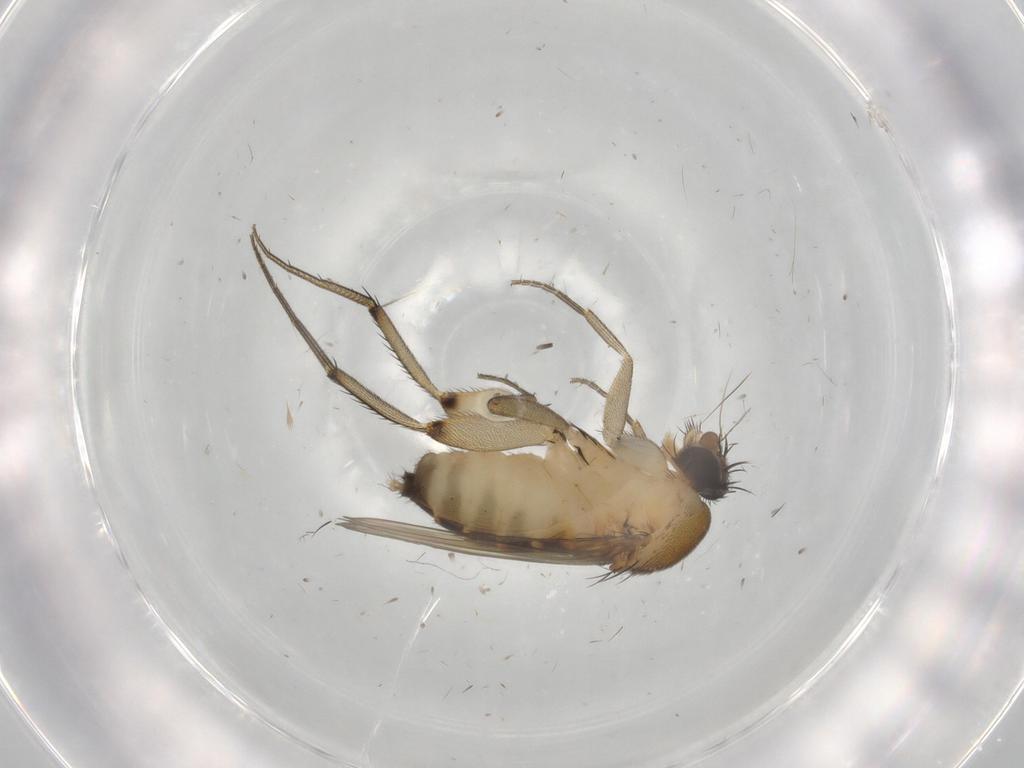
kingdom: Animalia
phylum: Arthropoda
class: Insecta
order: Diptera
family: Phoridae
